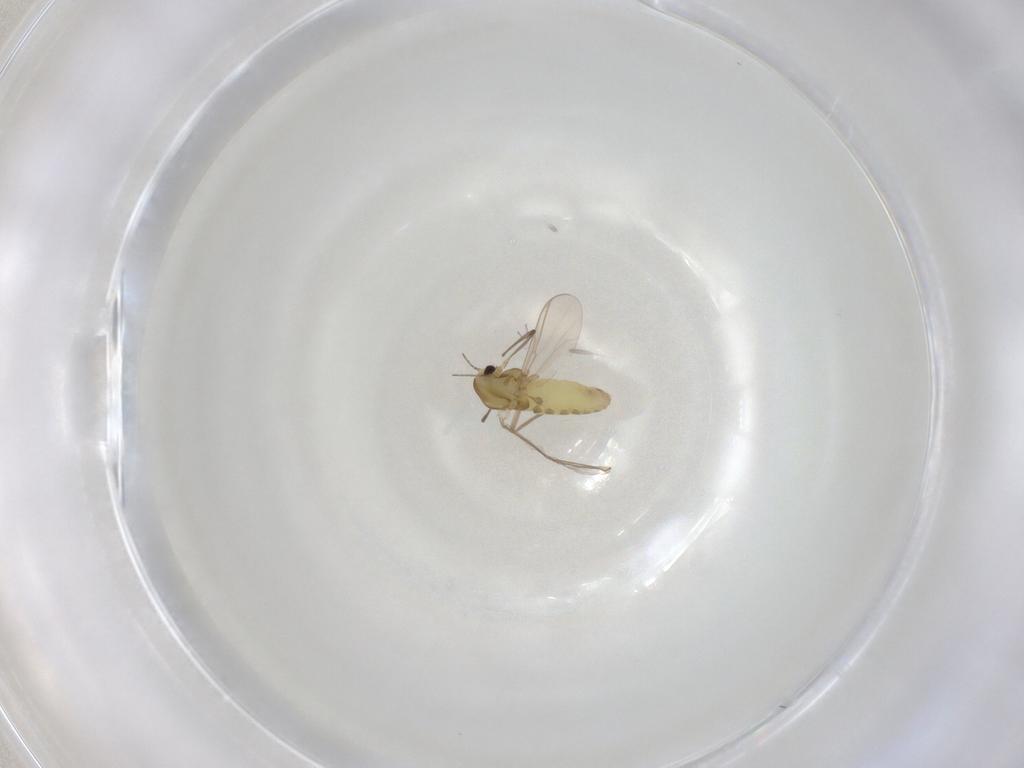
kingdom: Animalia
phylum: Arthropoda
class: Insecta
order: Diptera
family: Chironomidae
